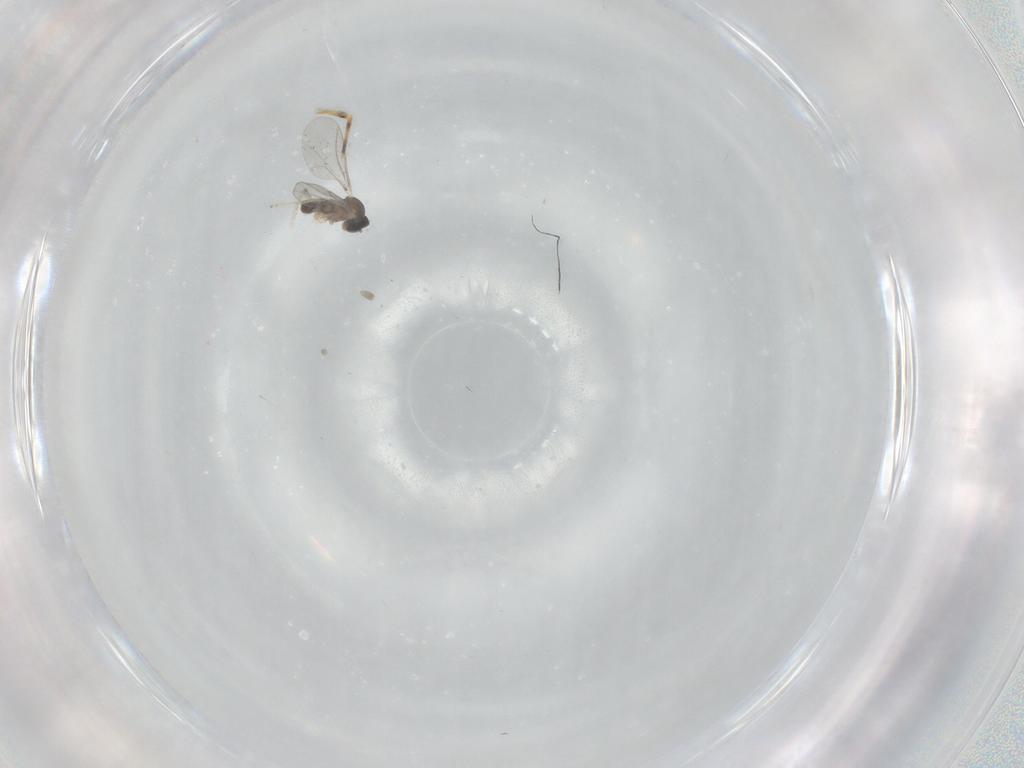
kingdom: Animalia
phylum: Arthropoda
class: Insecta
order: Diptera
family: Cecidomyiidae
